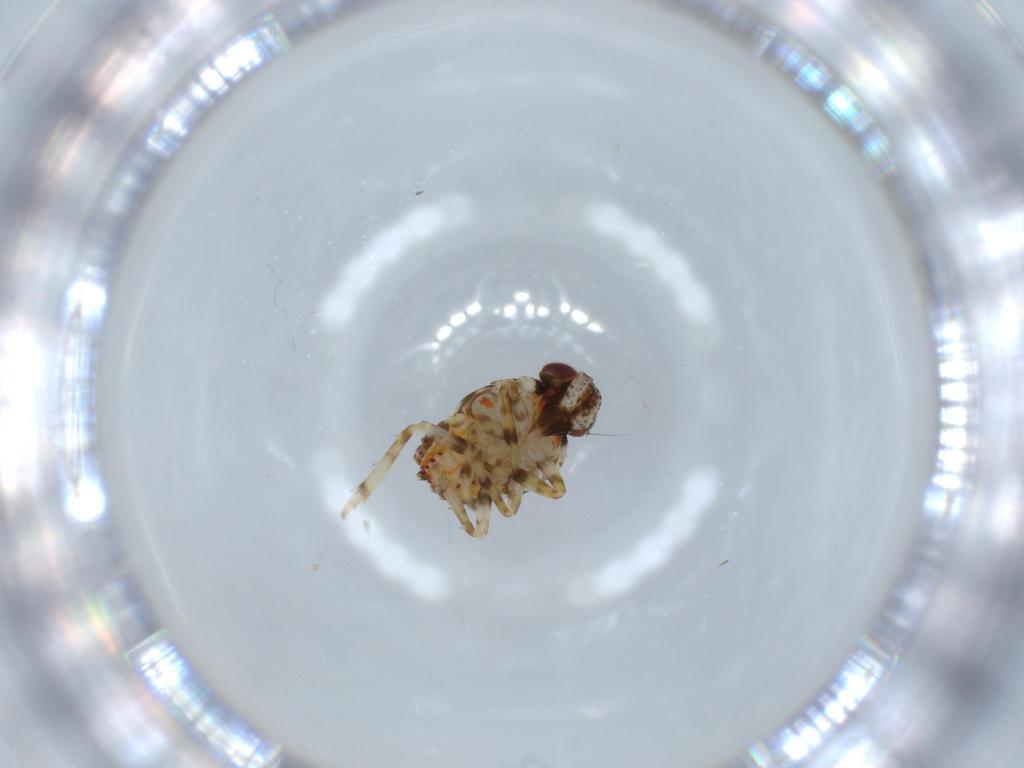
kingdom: Animalia
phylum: Arthropoda
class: Insecta
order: Hemiptera
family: Issidae
